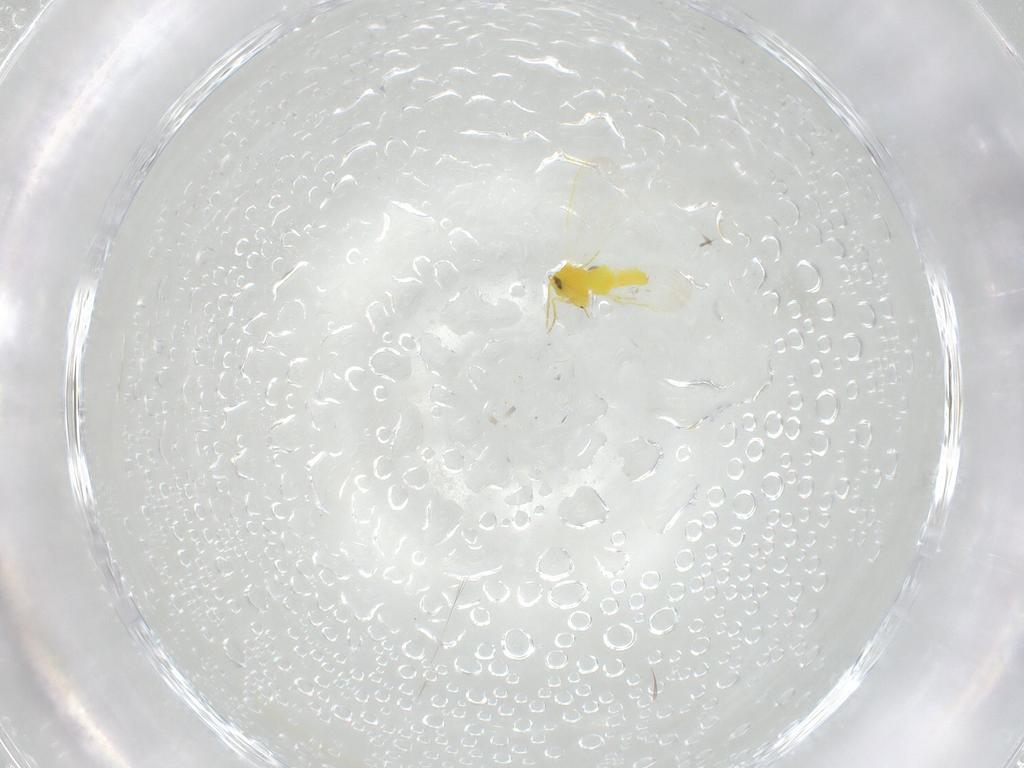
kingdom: Animalia
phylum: Arthropoda
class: Insecta
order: Hemiptera
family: Aleyrodidae
